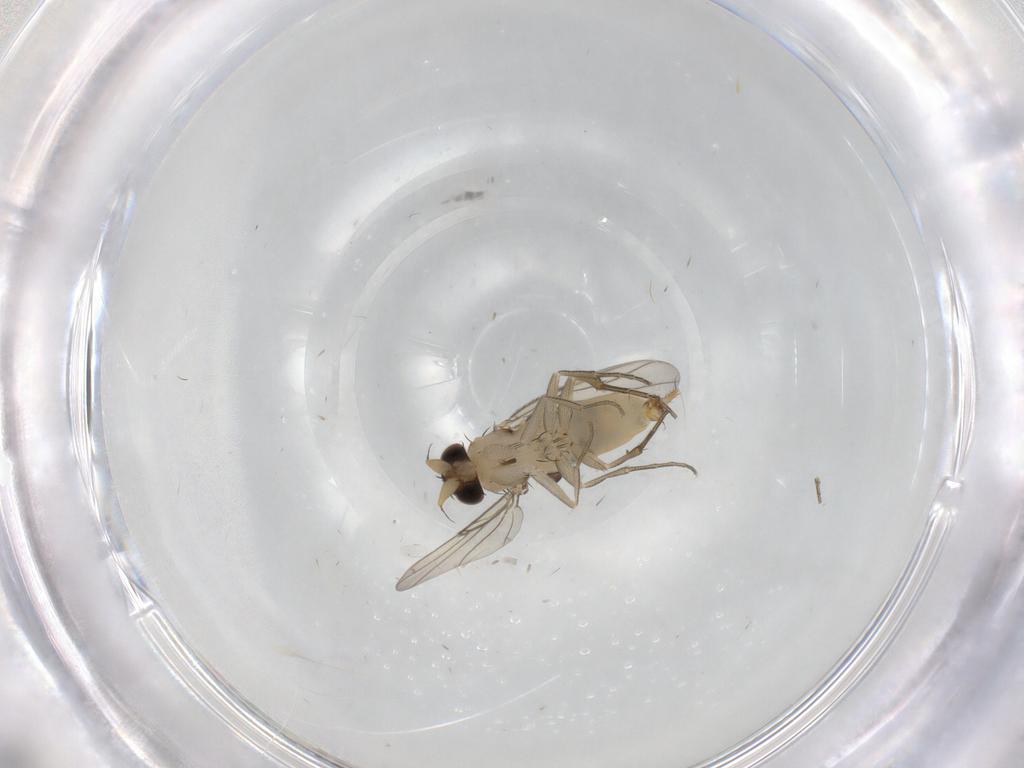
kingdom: Animalia
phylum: Arthropoda
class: Insecta
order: Diptera
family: Phoridae
